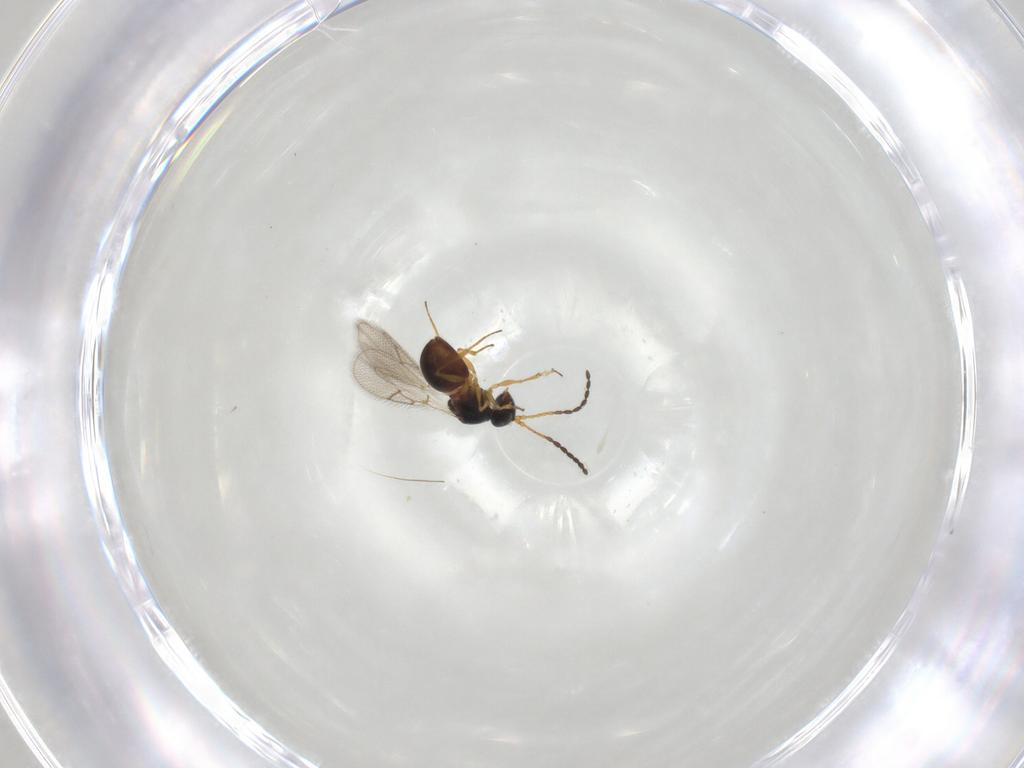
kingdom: Animalia
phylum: Arthropoda
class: Insecta
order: Hymenoptera
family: Figitidae
